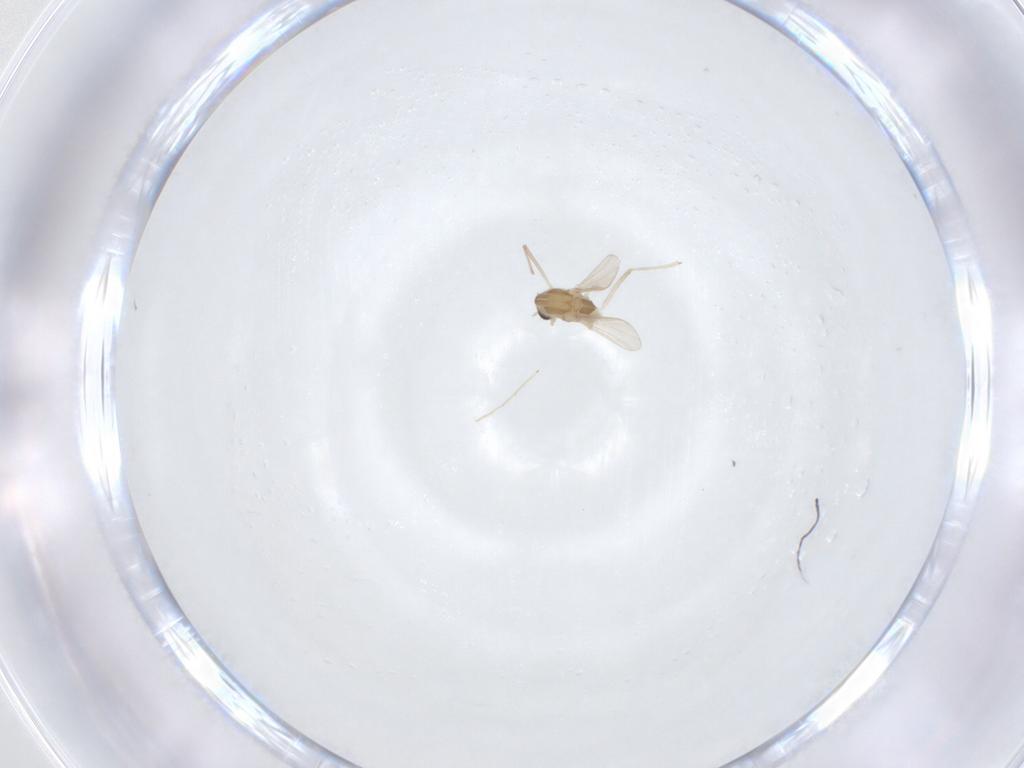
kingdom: Animalia
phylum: Arthropoda
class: Insecta
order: Diptera
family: Chironomidae
